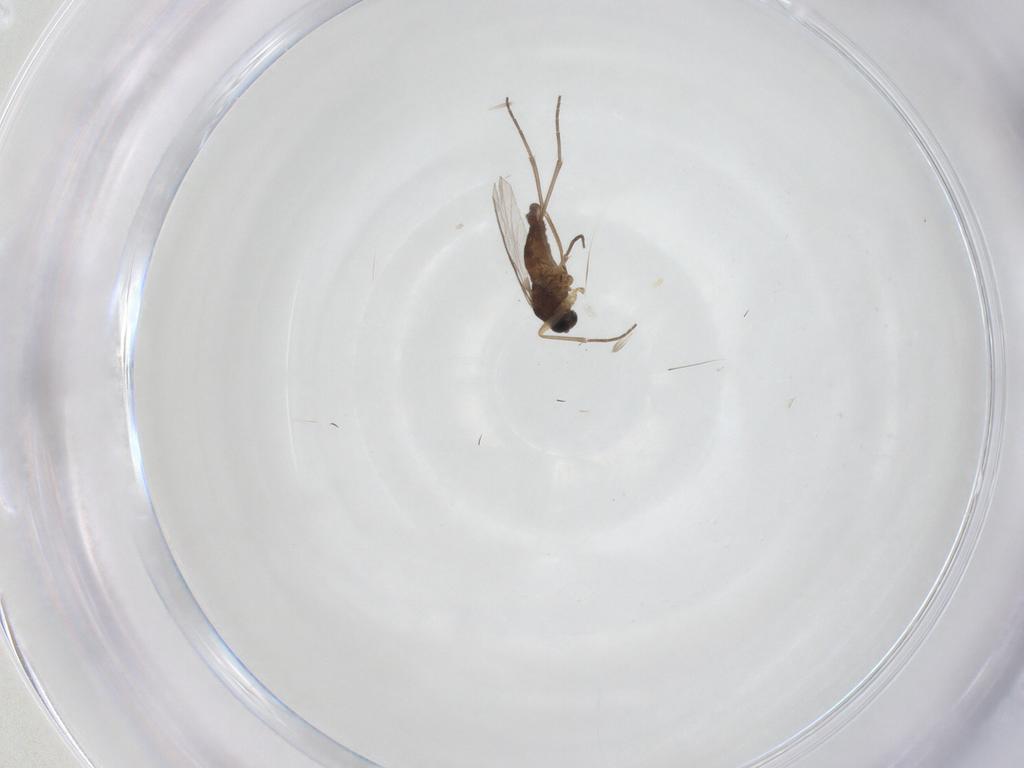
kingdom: Animalia
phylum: Arthropoda
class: Insecta
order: Diptera
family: Sciaridae
